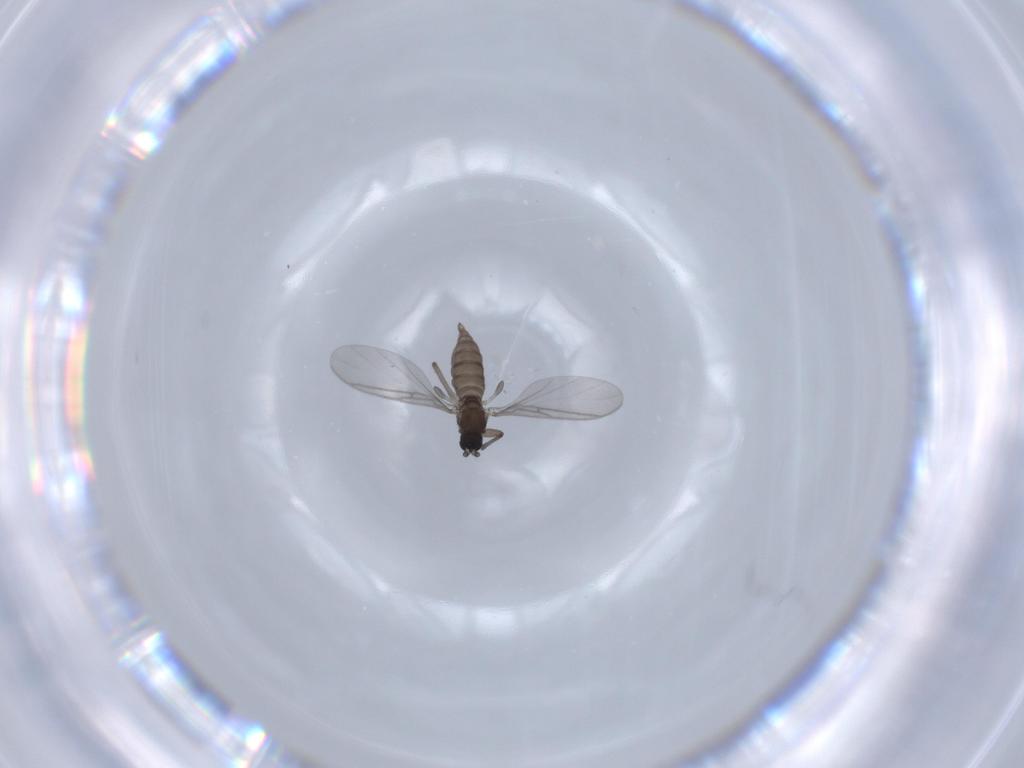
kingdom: Animalia
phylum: Arthropoda
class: Insecta
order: Diptera
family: Sciaridae
